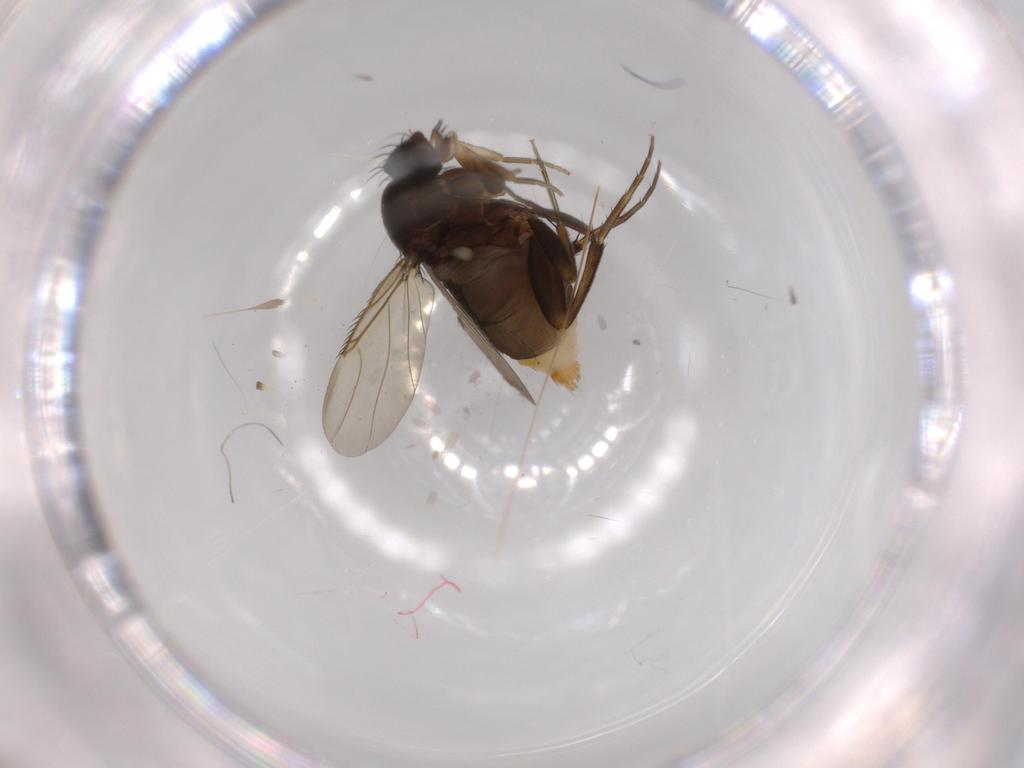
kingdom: Animalia
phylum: Arthropoda
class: Insecta
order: Diptera
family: Phoridae
